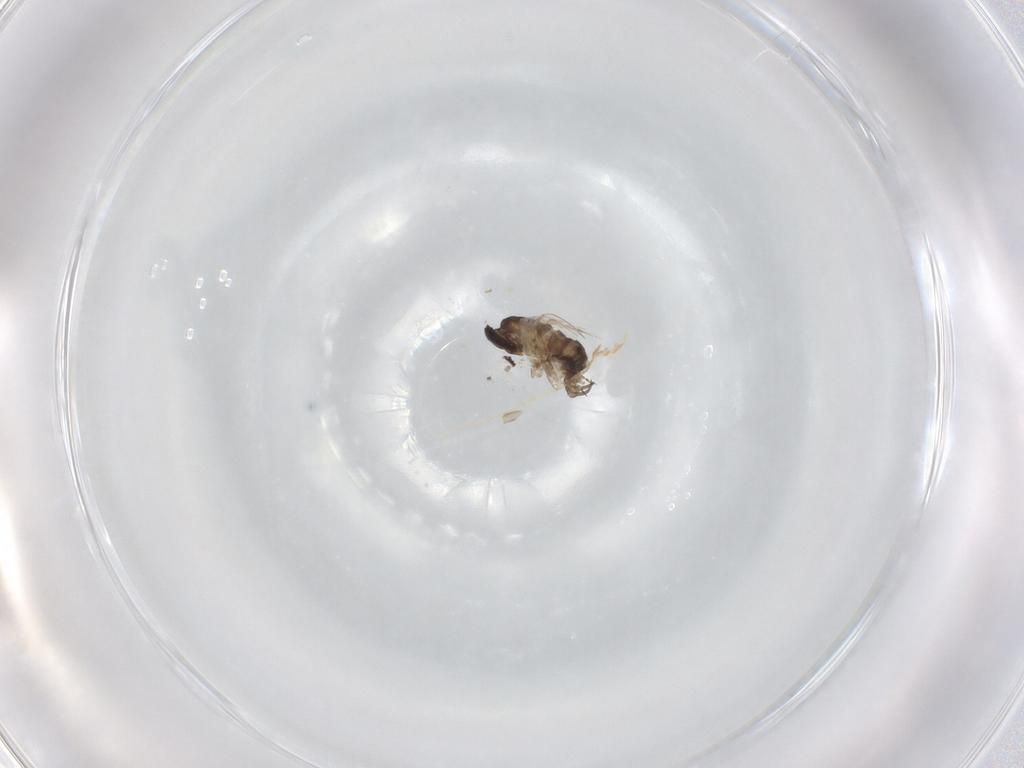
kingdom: Animalia
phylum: Arthropoda
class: Insecta
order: Diptera
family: Psychodidae
